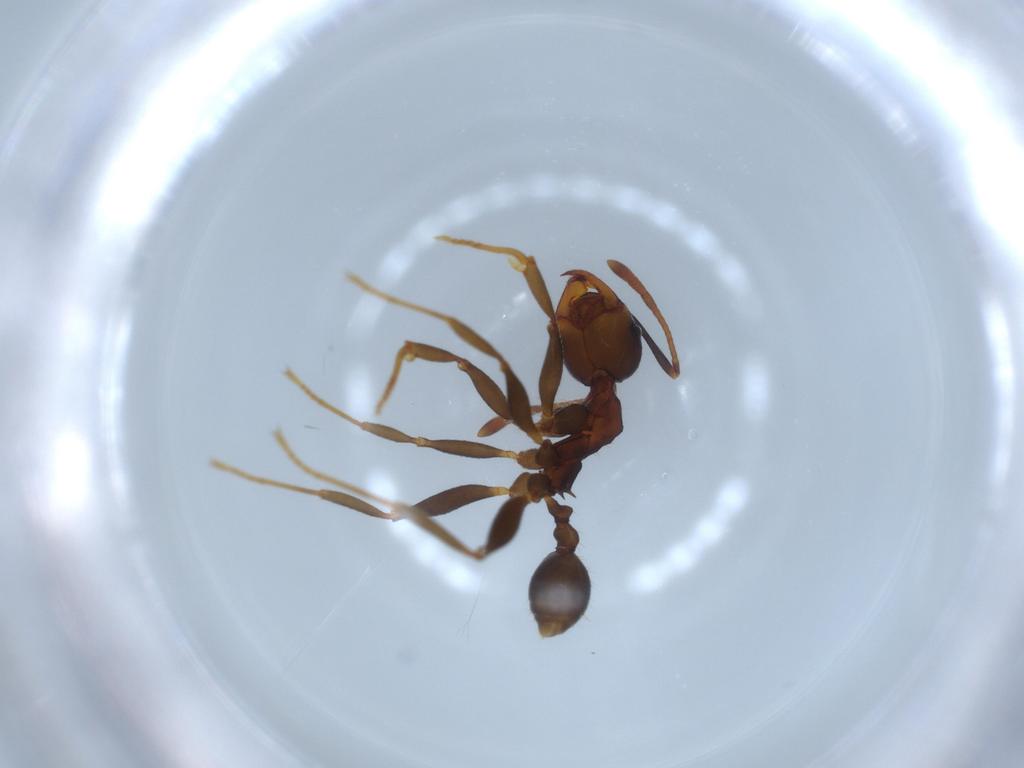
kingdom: Animalia
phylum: Arthropoda
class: Insecta
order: Hymenoptera
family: Formicidae
